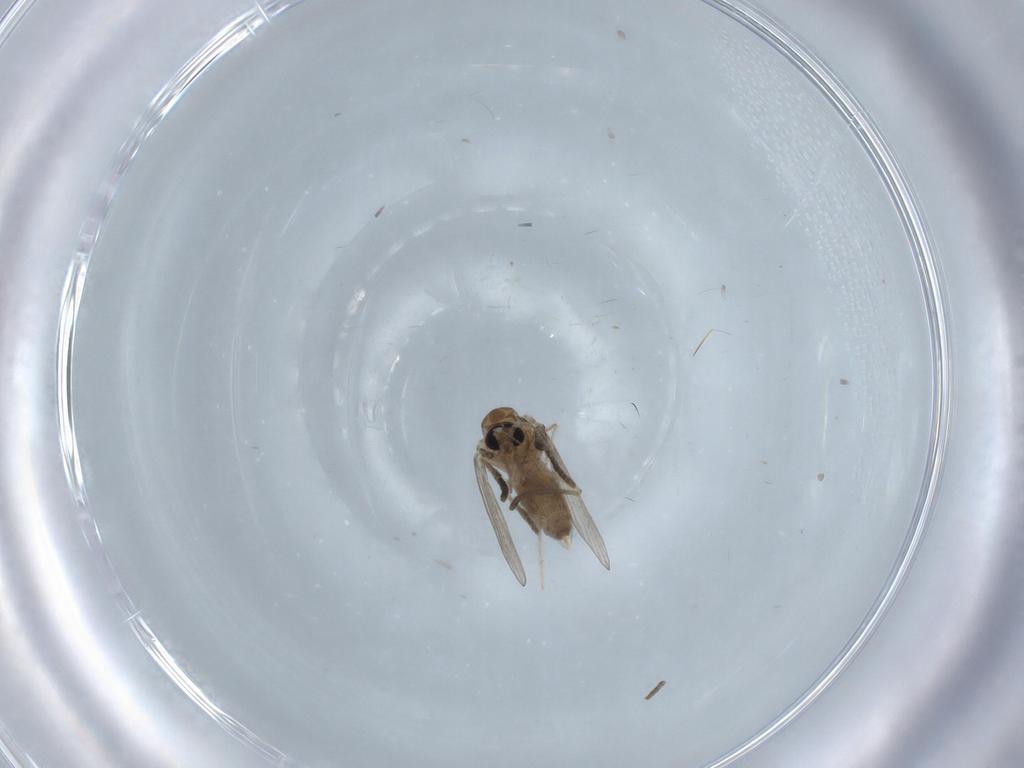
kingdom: Animalia
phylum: Arthropoda
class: Insecta
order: Diptera
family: Psychodidae
